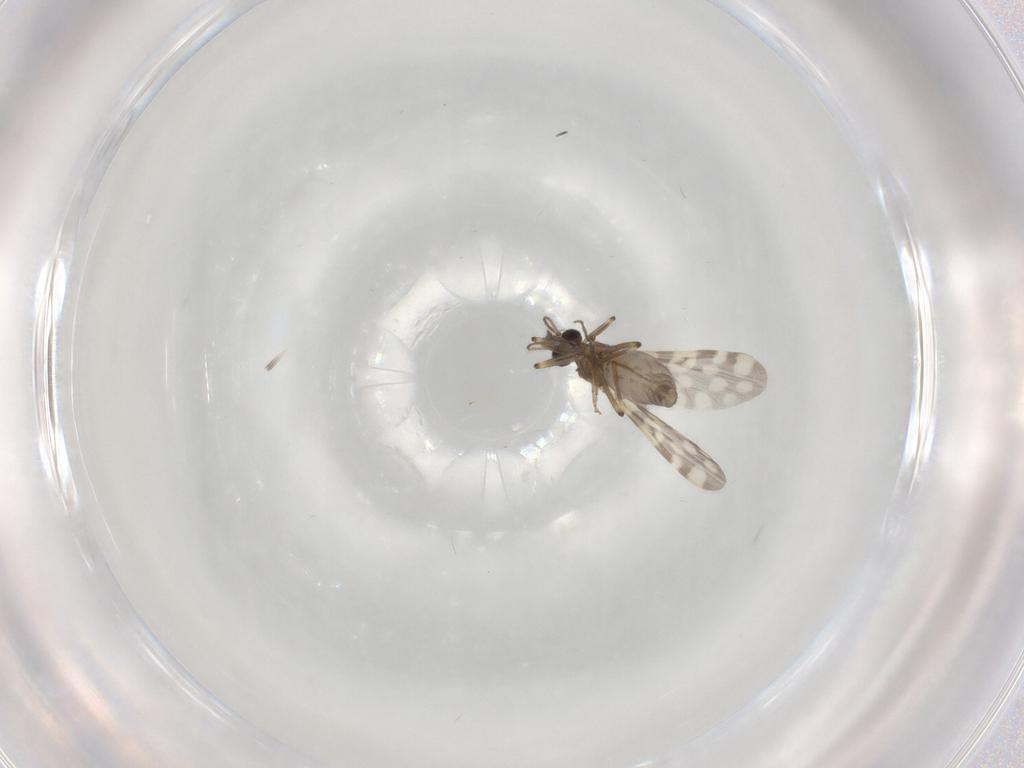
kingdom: Animalia
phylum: Arthropoda
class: Insecta
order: Diptera
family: Ceratopogonidae
